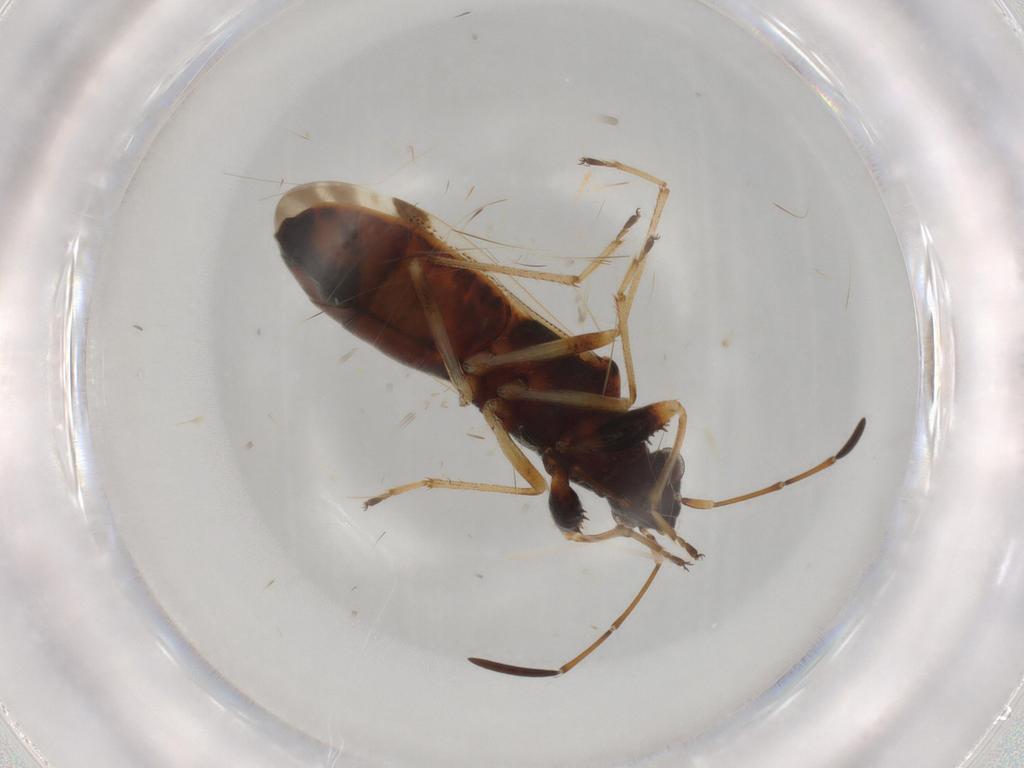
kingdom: Animalia
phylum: Arthropoda
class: Insecta
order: Hemiptera
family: Rhyparochromidae
